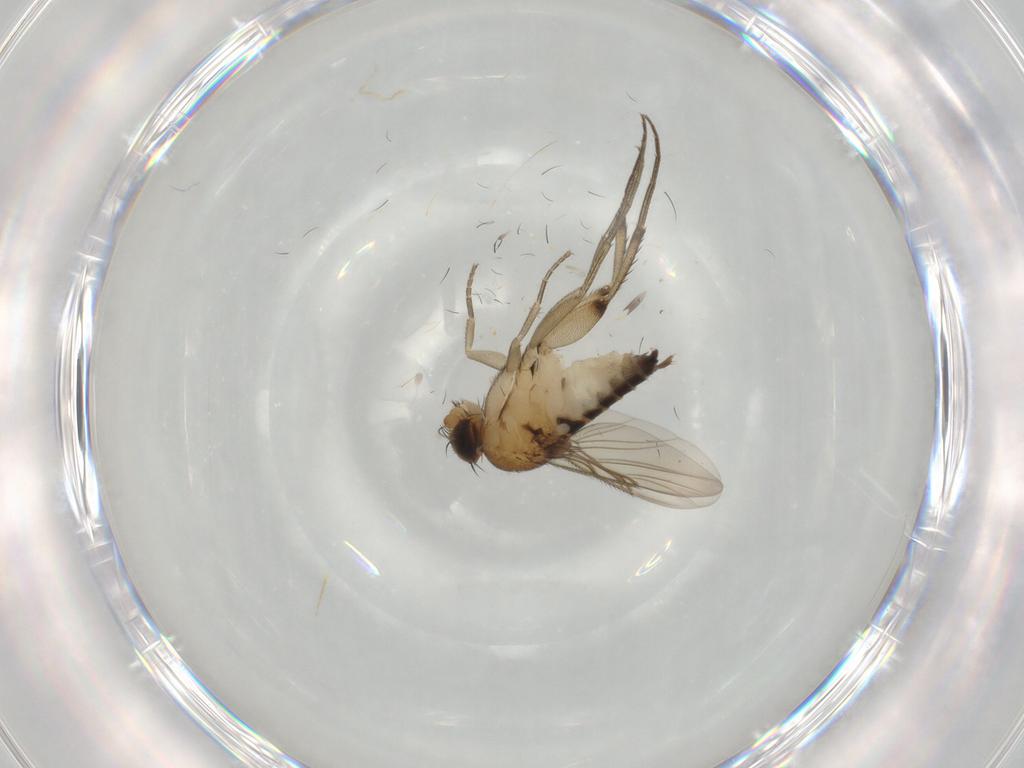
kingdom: Animalia
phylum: Arthropoda
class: Insecta
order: Diptera
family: Phoridae
